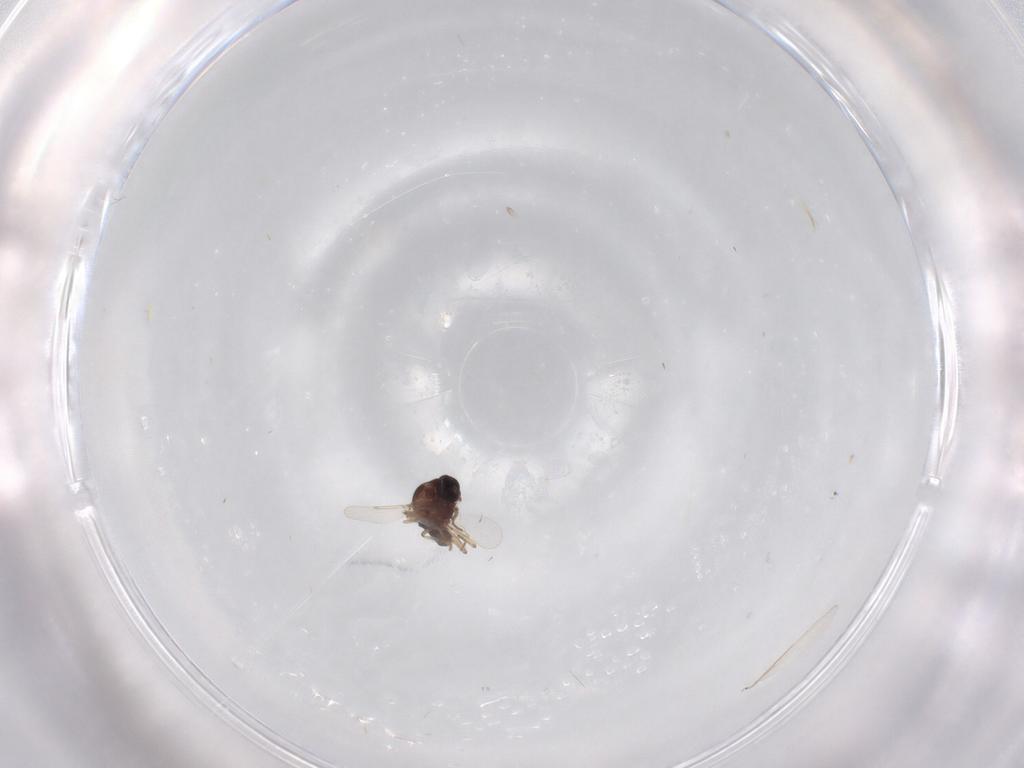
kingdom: Animalia
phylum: Arthropoda
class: Insecta
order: Diptera
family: Ceratopogonidae
